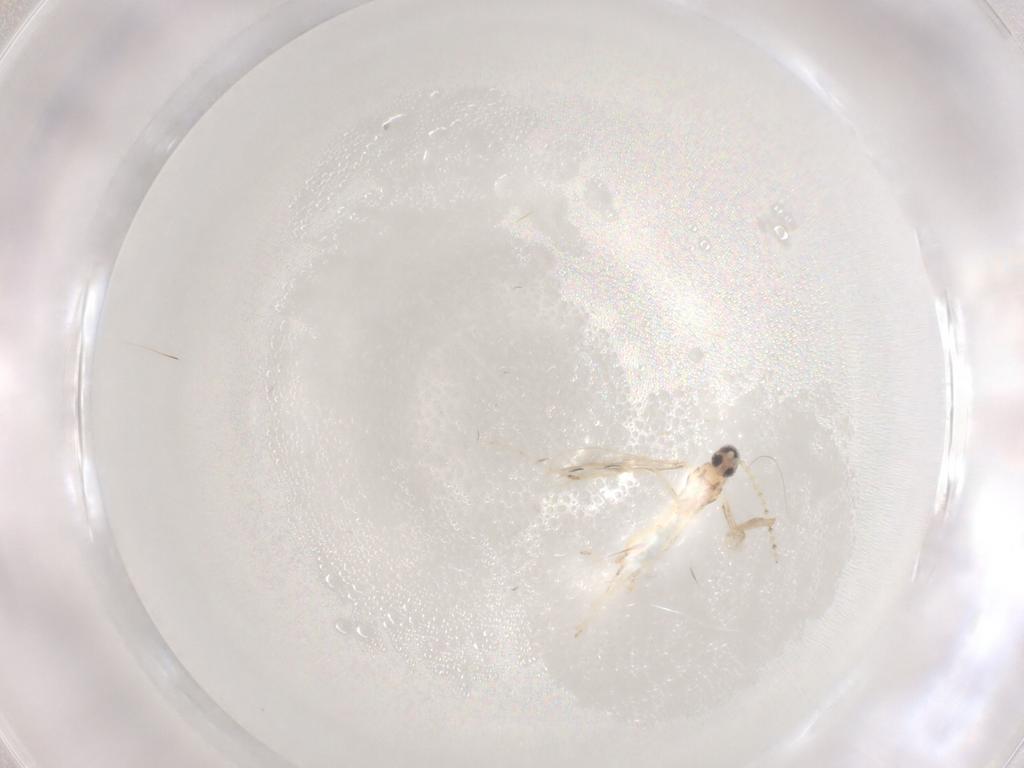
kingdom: Animalia
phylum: Arthropoda
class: Insecta
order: Diptera
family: Cecidomyiidae
